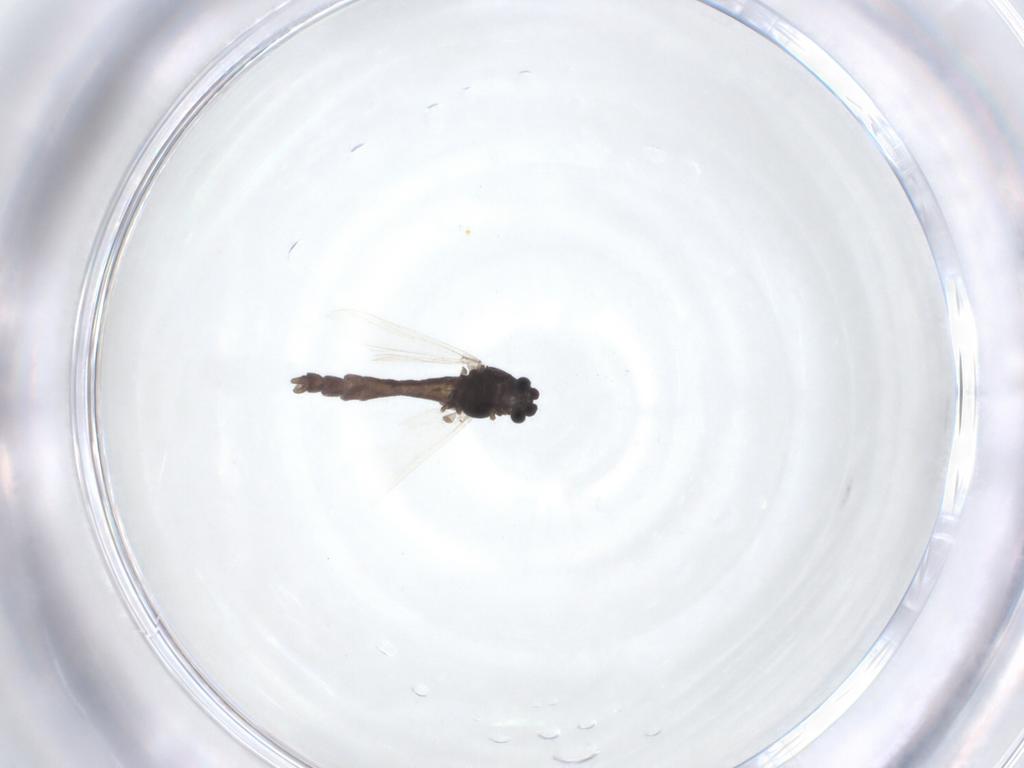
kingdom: Animalia
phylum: Arthropoda
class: Insecta
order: Diptera
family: Chironomidae
